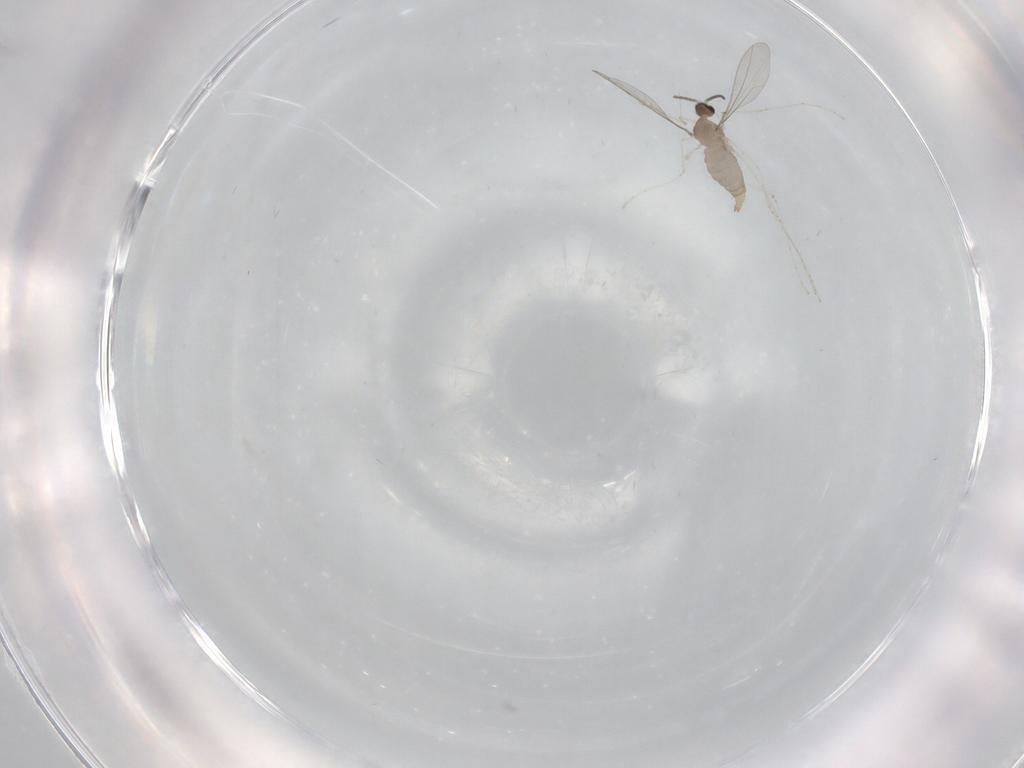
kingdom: Animalia
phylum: Arthropoda
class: Insecta
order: Diptera
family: Cecidomyiidae
